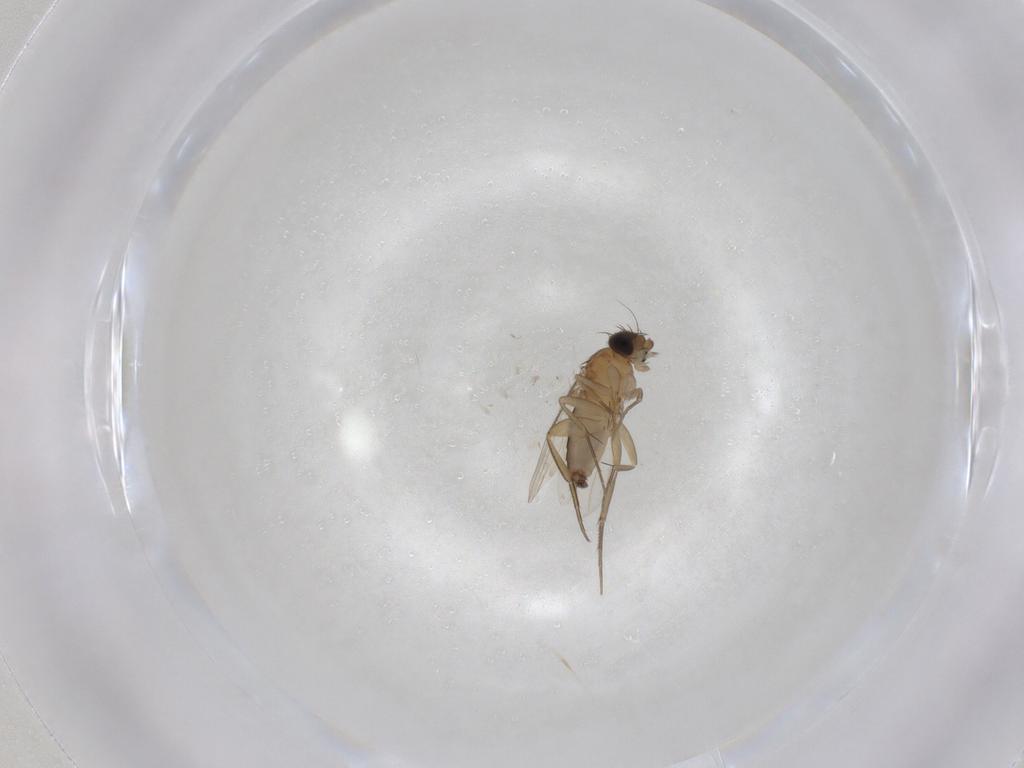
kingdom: Animalia
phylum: Arthropoda
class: Insecta
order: Diptera
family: Phoridae
